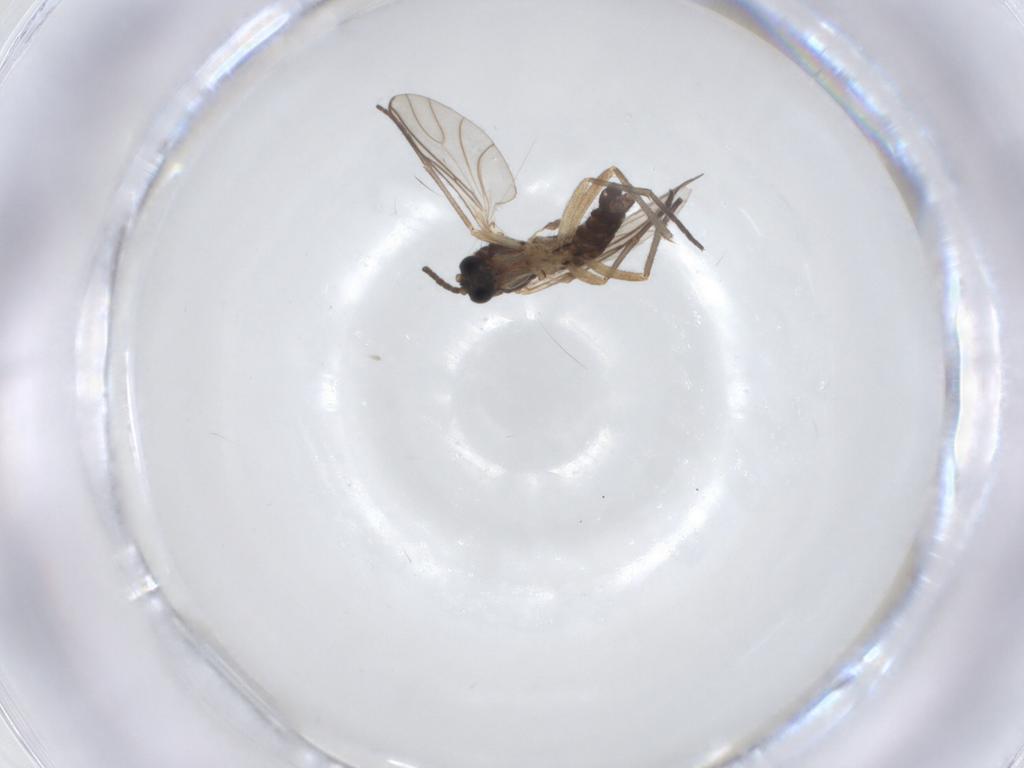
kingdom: Animalia
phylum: Arthropoda
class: Insecta
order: Diptera
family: Sciaridae
